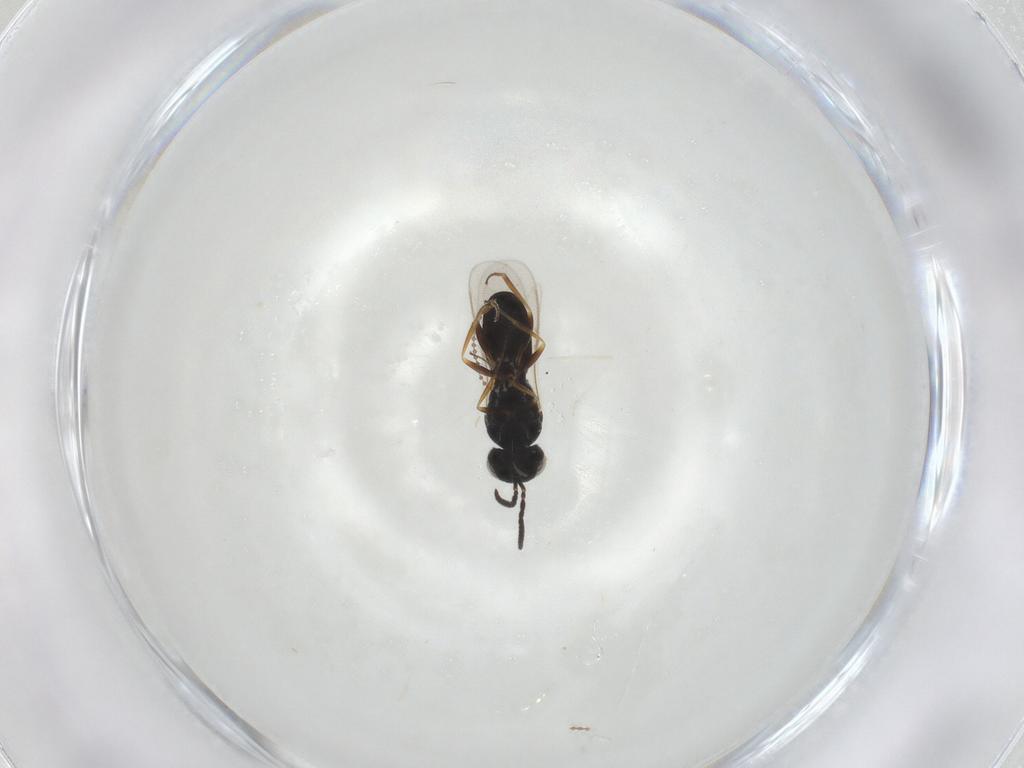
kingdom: Animalia
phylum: Arthropoda
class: Insecta
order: Hymenoptera
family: Scelionidae
